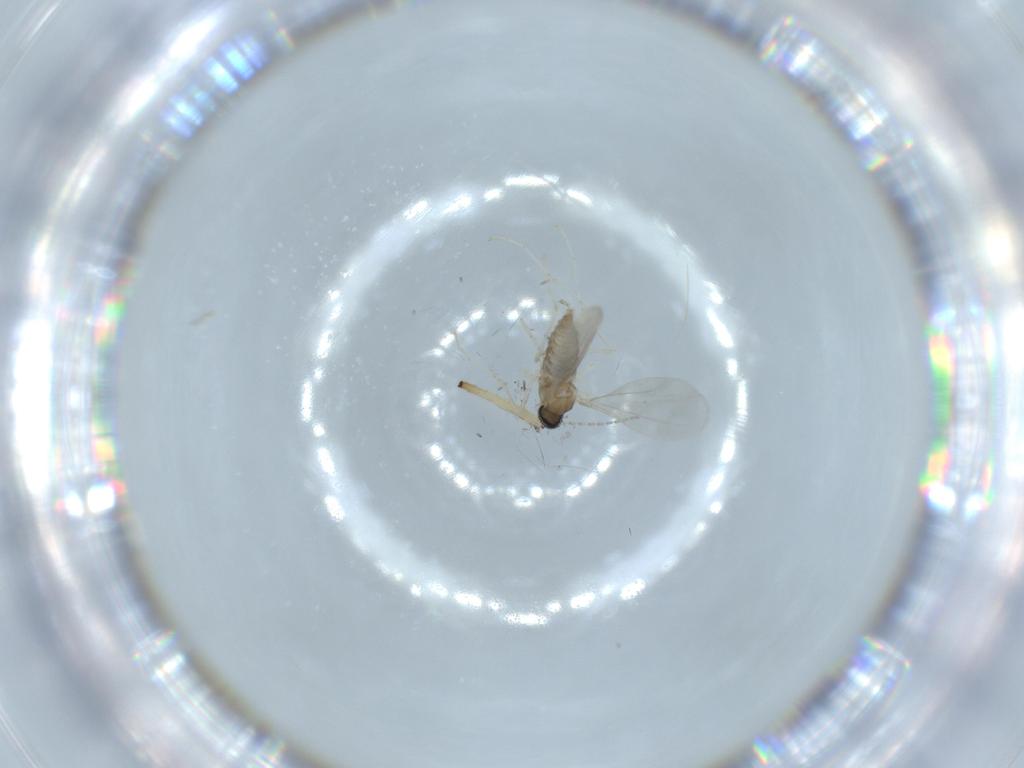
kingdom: Animalia
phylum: Arthropoda
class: Insecta
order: Diptera
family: Cecidomyiidae
